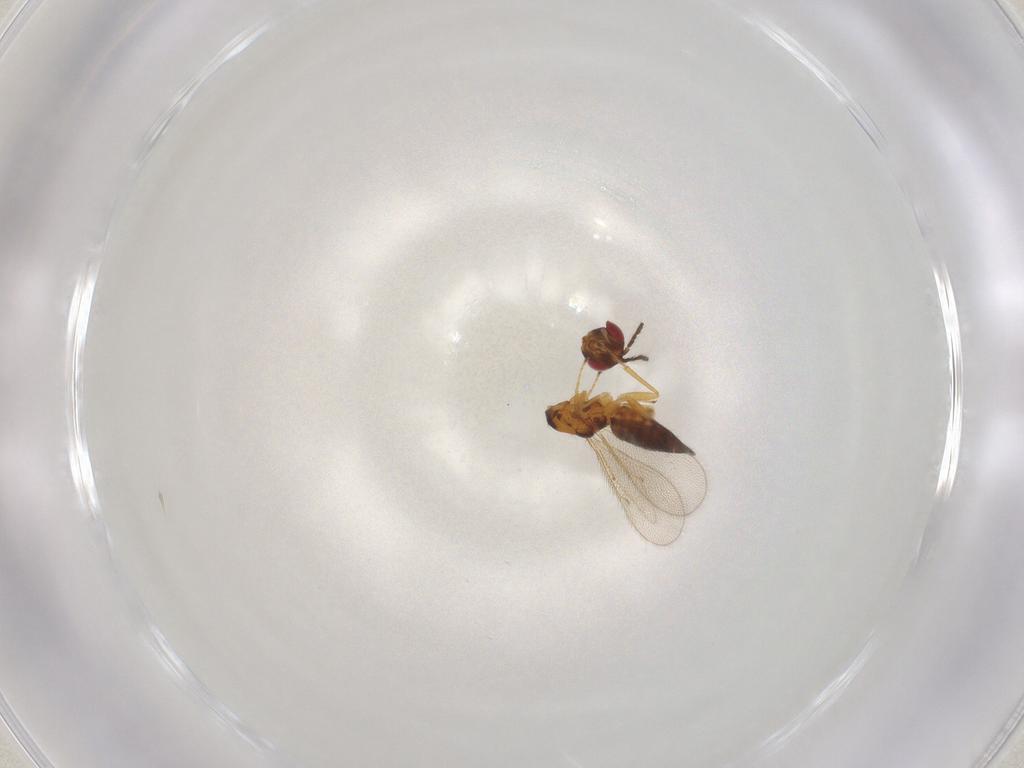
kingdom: Animalia
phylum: Arthropoda
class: Insecta
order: Hymenoptera
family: Eulophidae
